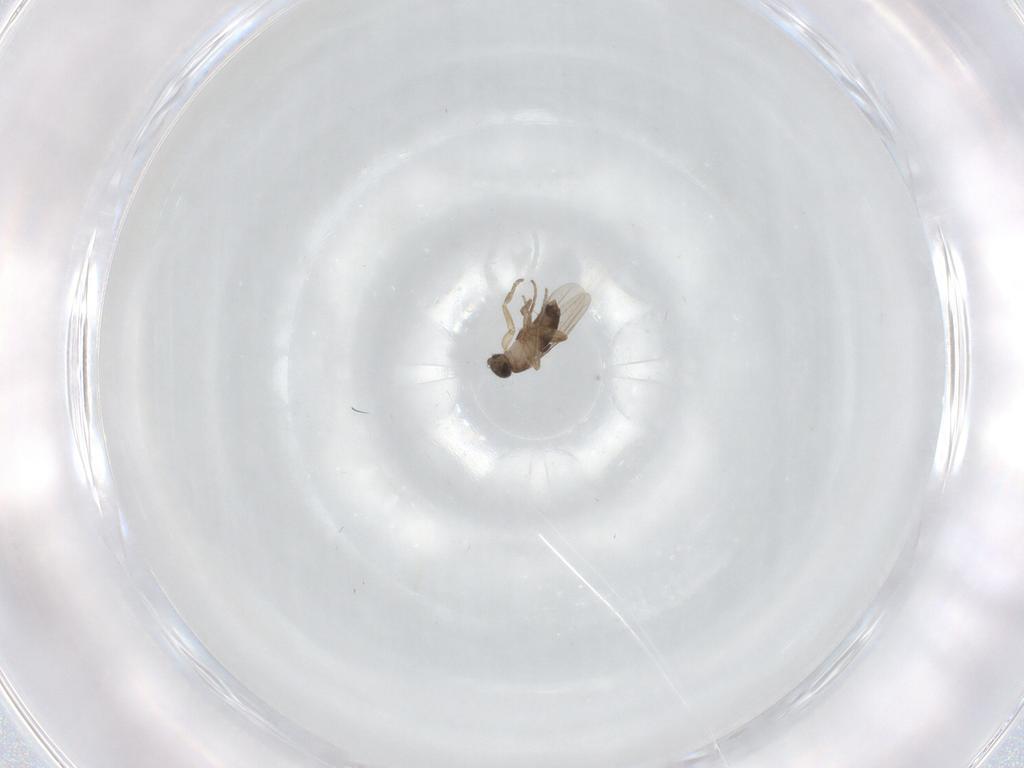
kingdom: Animalia
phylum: Arthropoda
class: Insecta
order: Diptera
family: Phoridae
